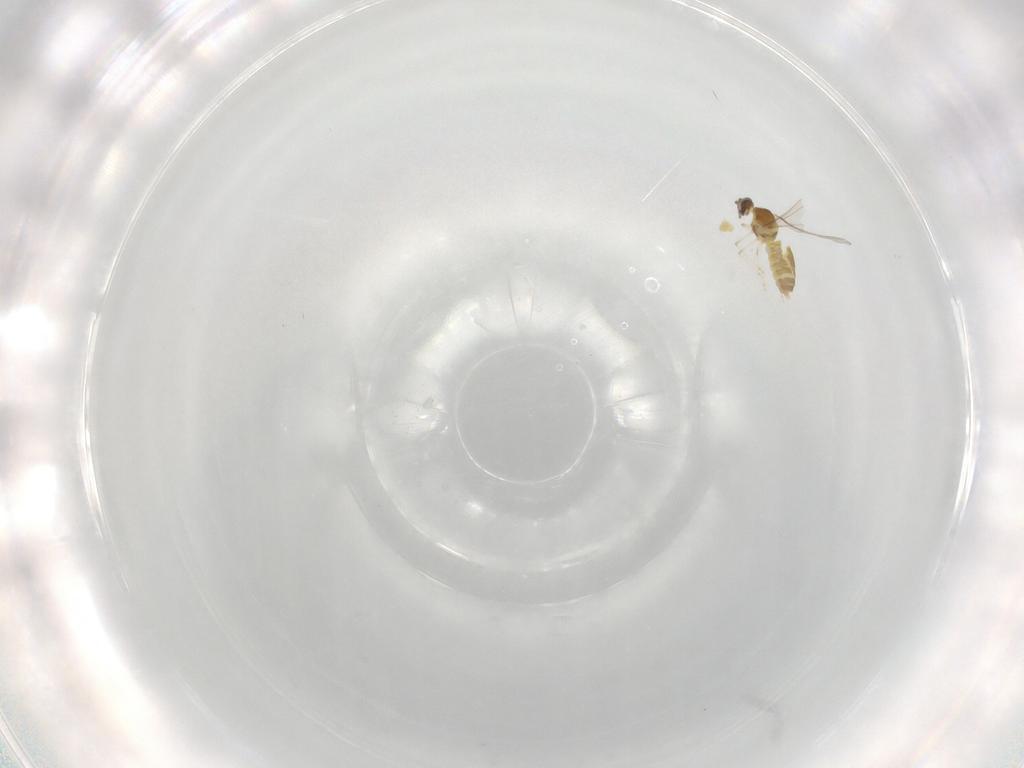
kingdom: Animalia
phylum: Arthropoda
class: Insecta
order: Diptera
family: Cecidomyiidae
